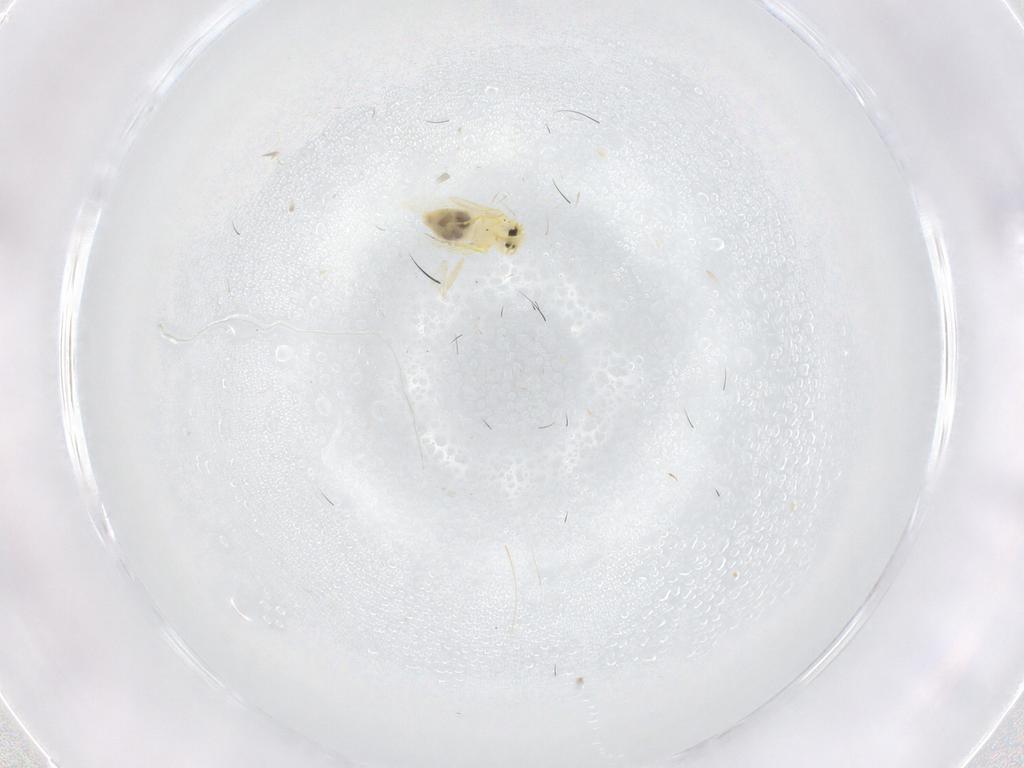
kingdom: Animalia
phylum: Arthropoda
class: Insecta
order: Hemiptera
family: Aleyrodidae
